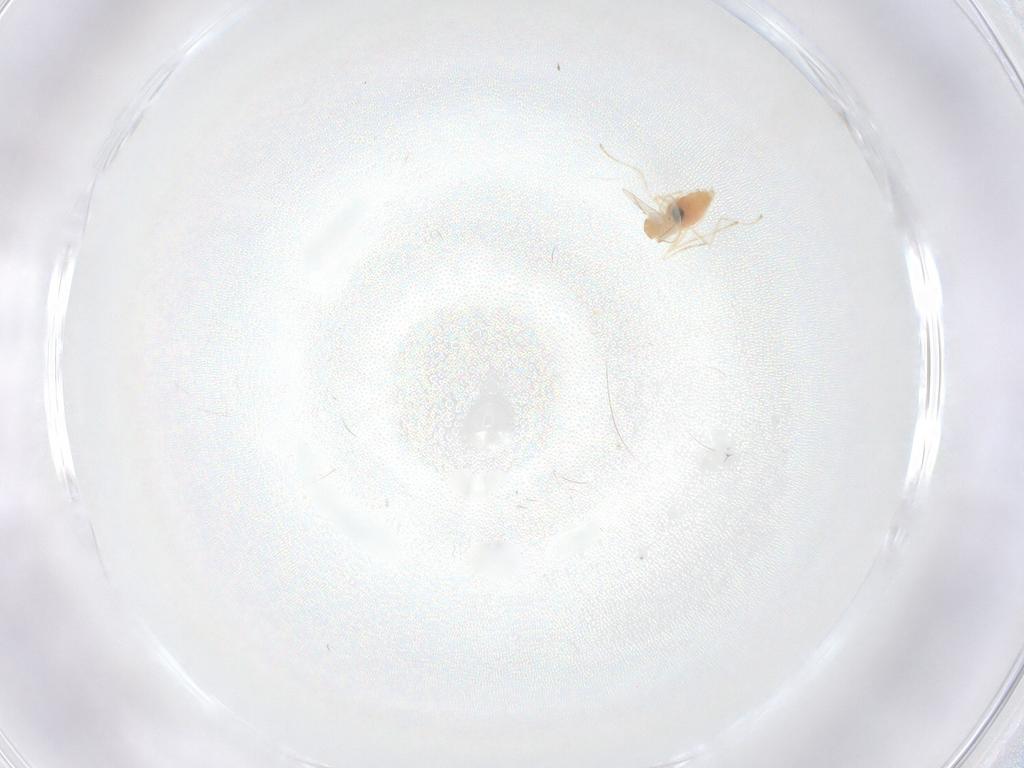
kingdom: Animalia
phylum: Arthropoda
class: Insecta
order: Diptera
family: Cecidomyiidae
